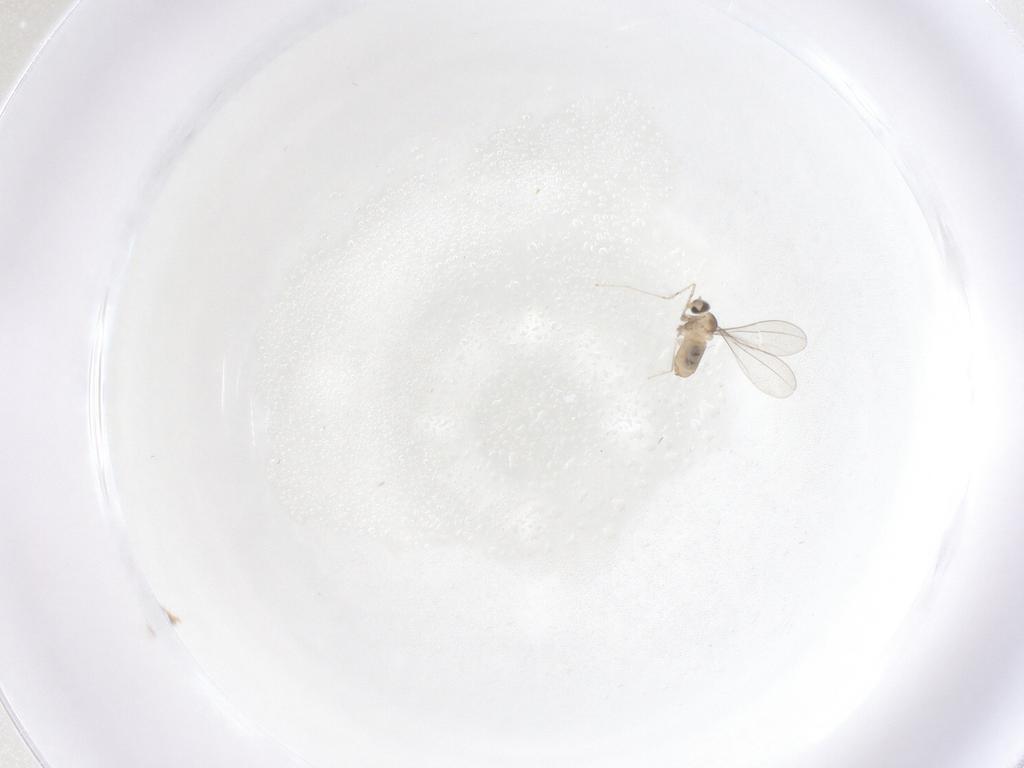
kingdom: Animalia
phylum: Arthropoda
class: Insecta
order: Diptera
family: Cecidomyiidae
